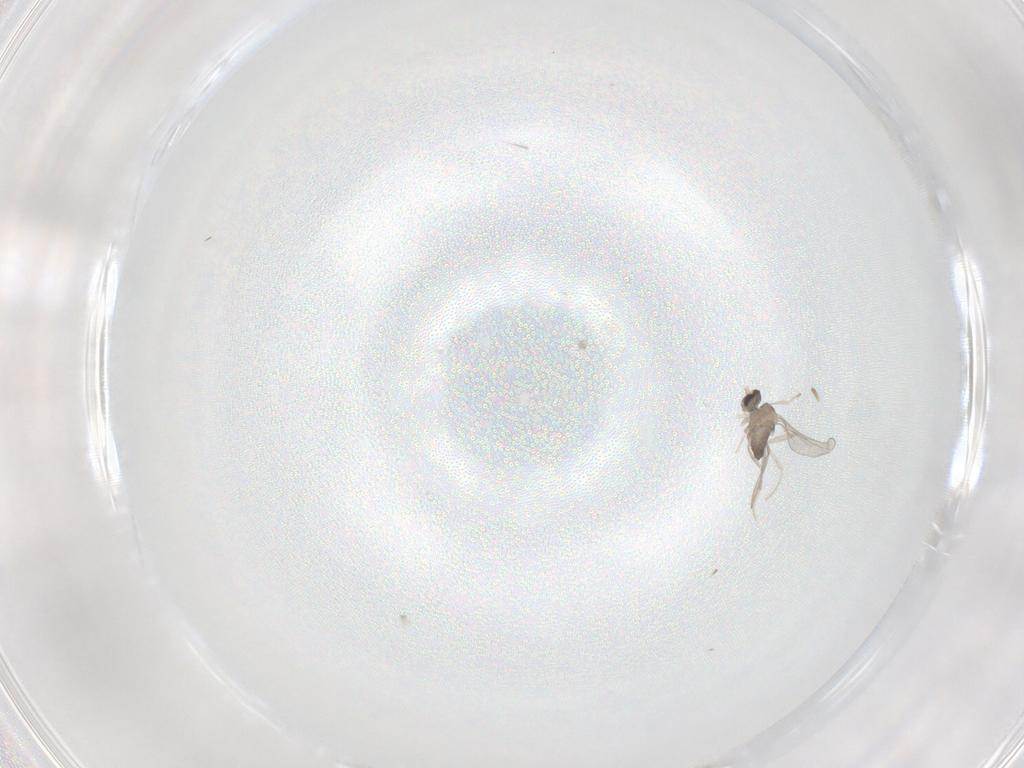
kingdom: Animalia
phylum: Arthropoda
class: Insecta
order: Diptera
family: Cecidomyiidae
